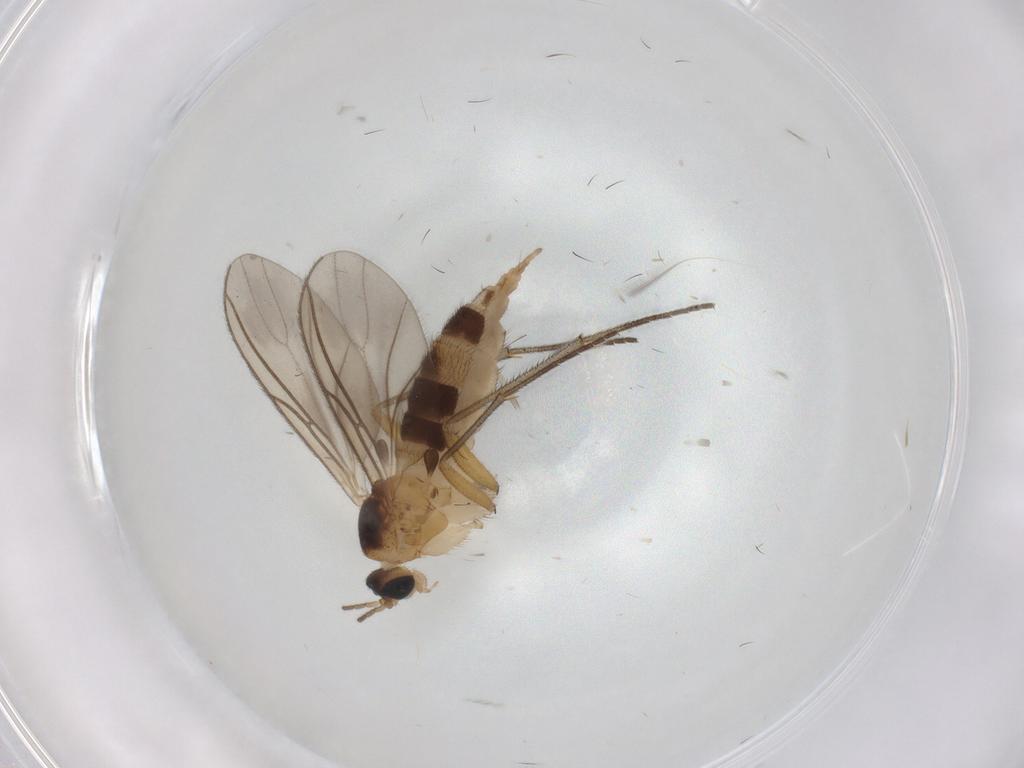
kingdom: Animalia
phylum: Arthropoda
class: Insecta
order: Diptera
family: Sciaridae
